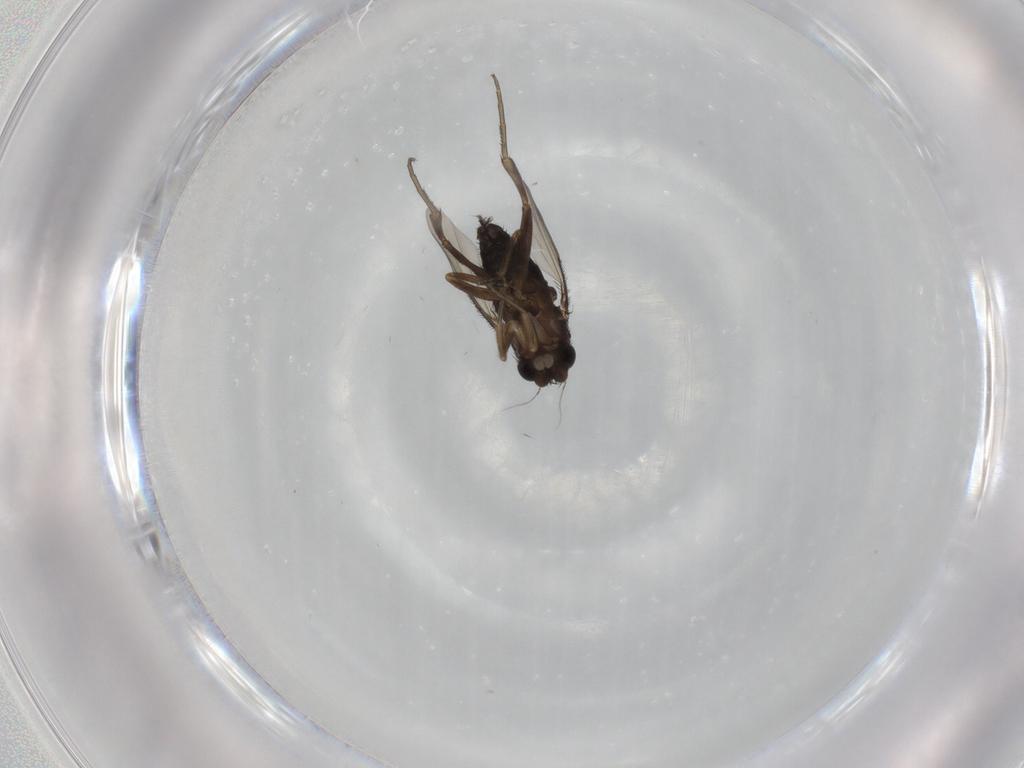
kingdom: Animalia
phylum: Arthropoda
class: Insecta
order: Diptera
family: Phoridae
